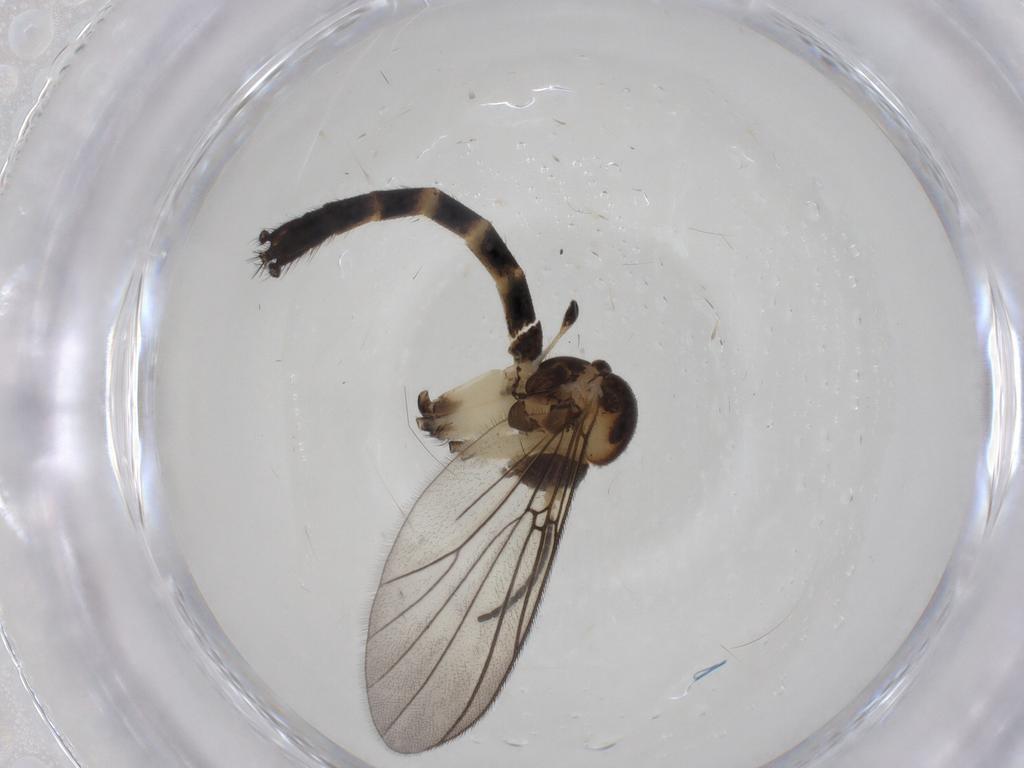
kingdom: Animalia
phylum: Arthropoda
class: Insecta
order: Diptera
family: Mycetophilidae
